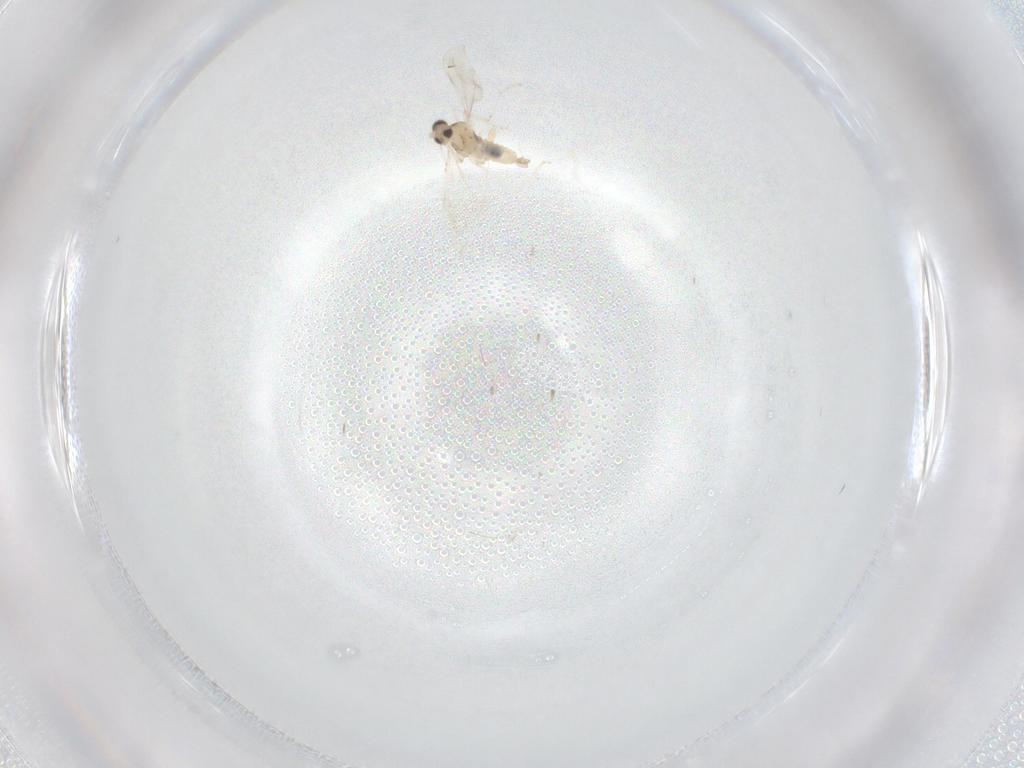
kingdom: Animalia
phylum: Arthropoda
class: Insecta
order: Diptera
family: Cecidomyiidae
